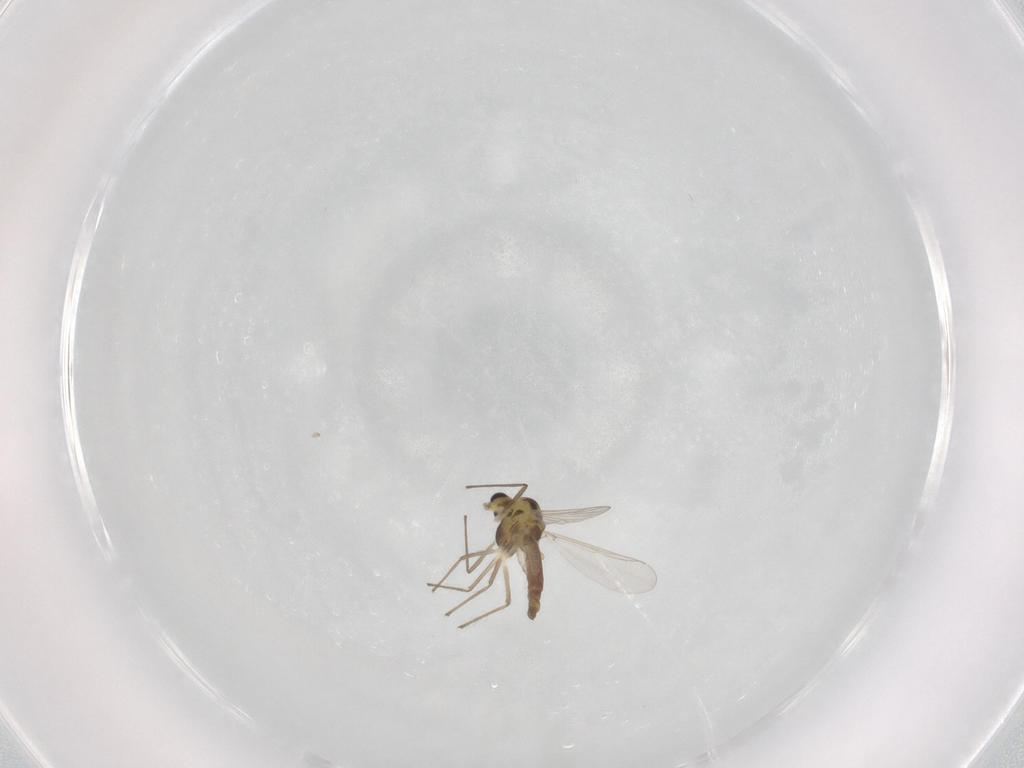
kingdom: Animalia
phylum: Arthropoda
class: Insecta
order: Diptera
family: Chironomidae
